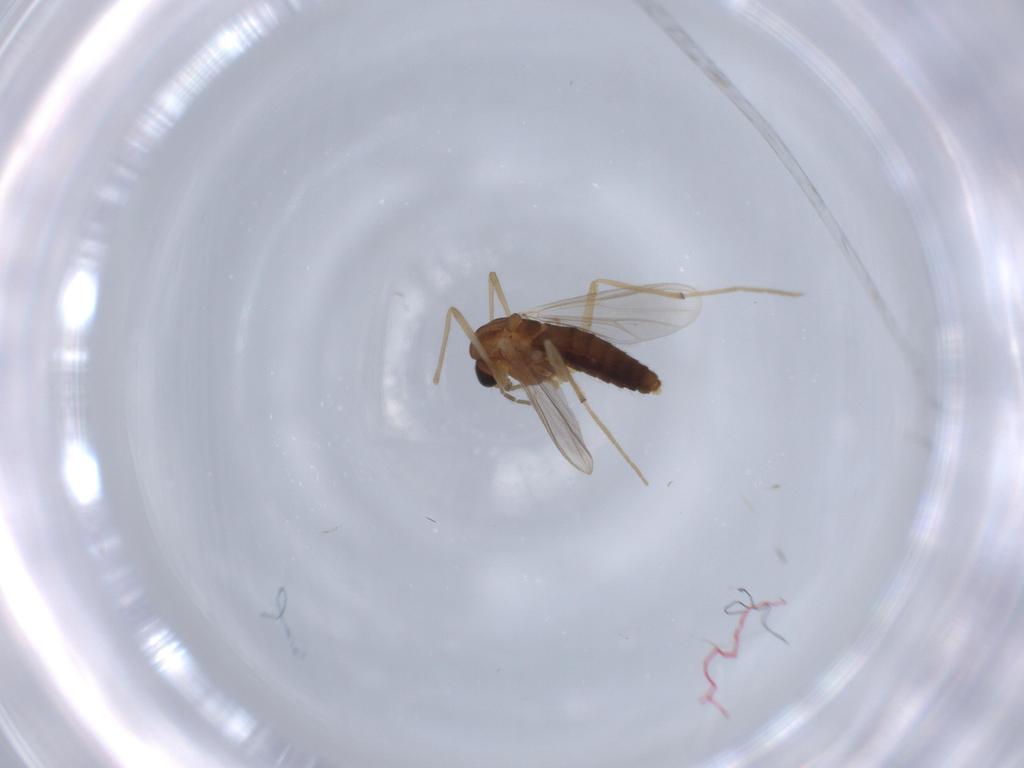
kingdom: Animalia
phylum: Arthropoda
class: Insecta
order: Diptera
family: Chironomidae
